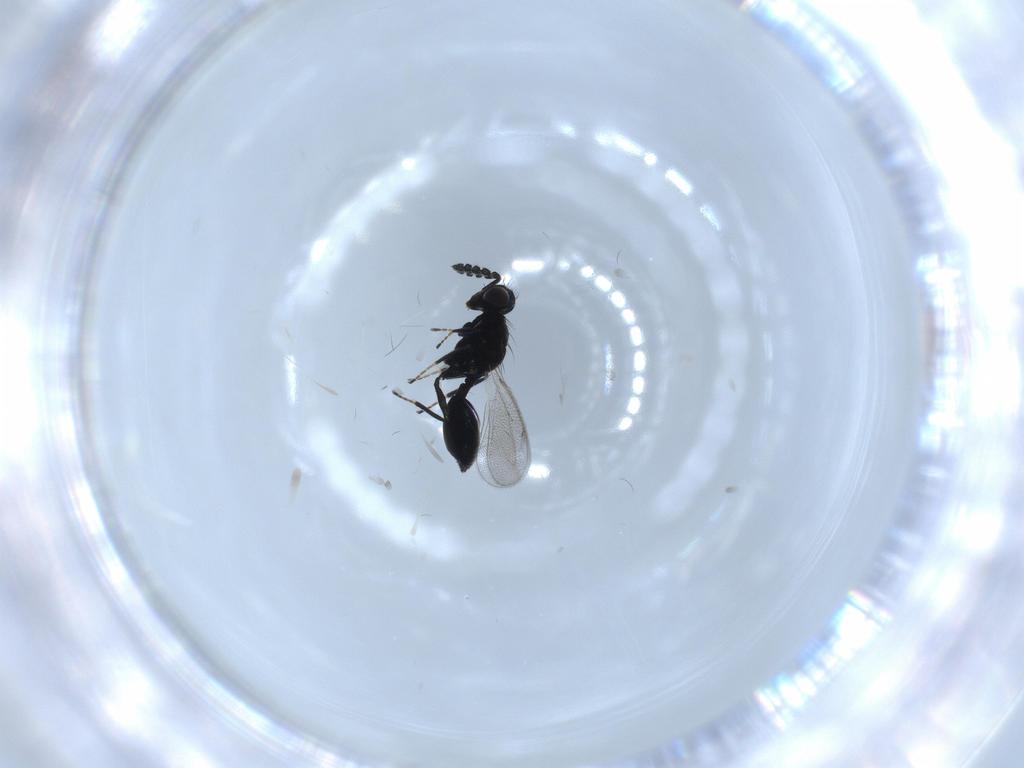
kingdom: Animalia
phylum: Arthropoda
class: Insecta
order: Hymenoptera
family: Eulophidae
